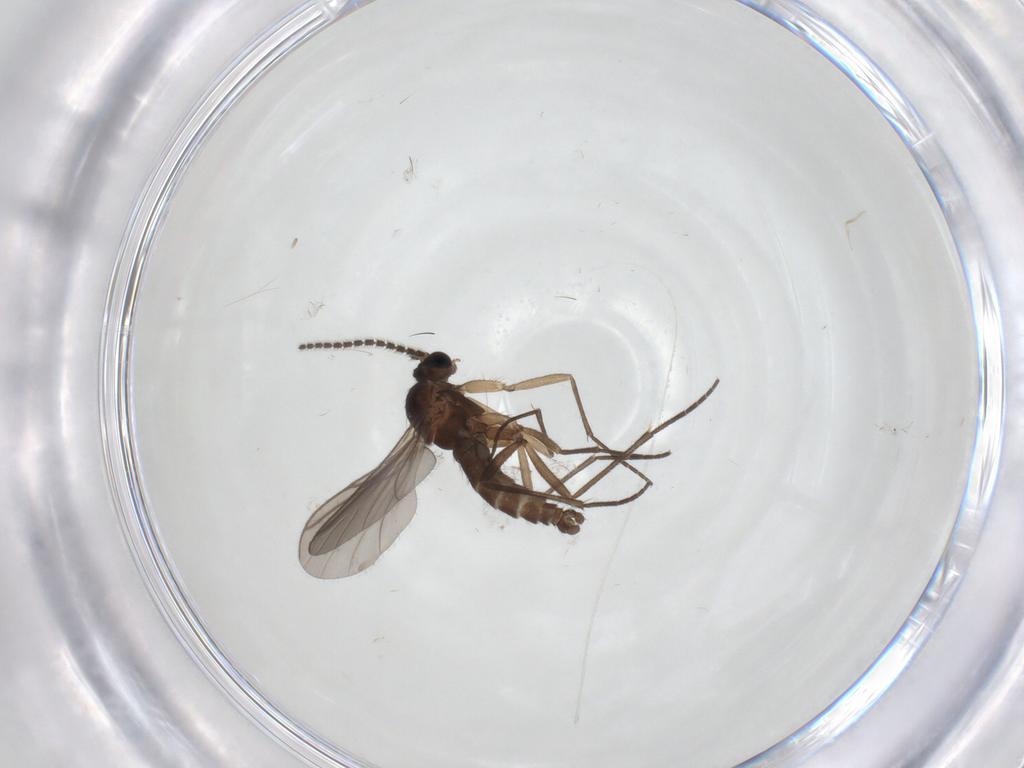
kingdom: Animalia
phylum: Arthropoda
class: Insecta
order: Diptera
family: Sciaridae
